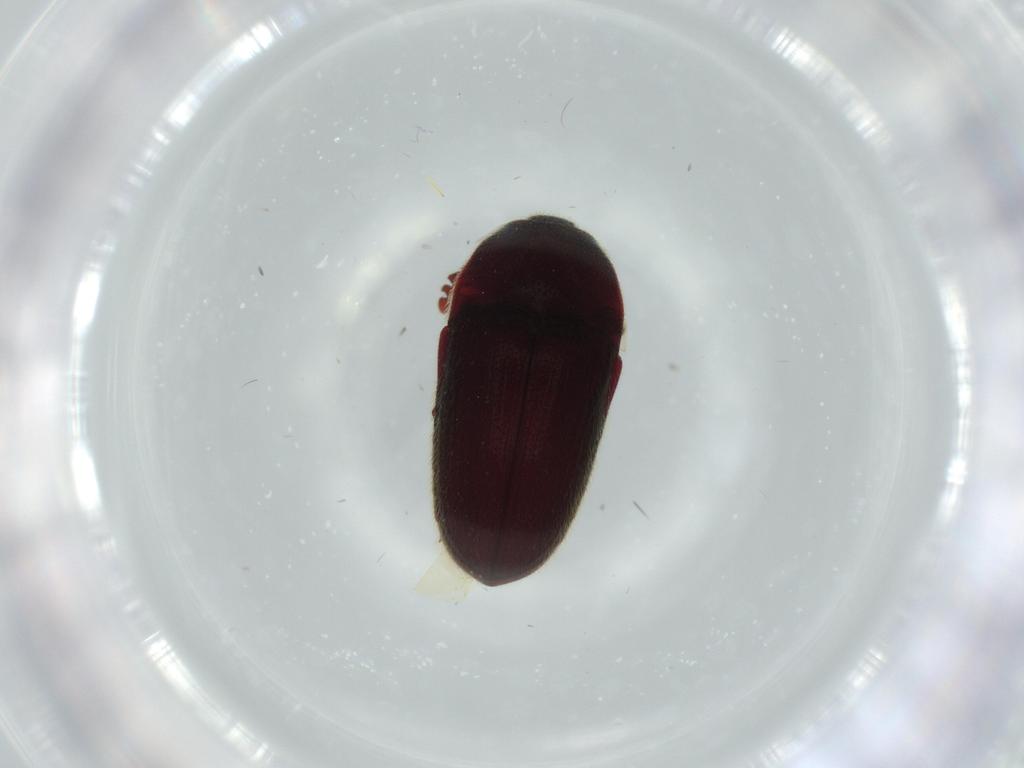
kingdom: Animalia
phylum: Arthropoda
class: Insecta
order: Coleoptera
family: Throscidae
